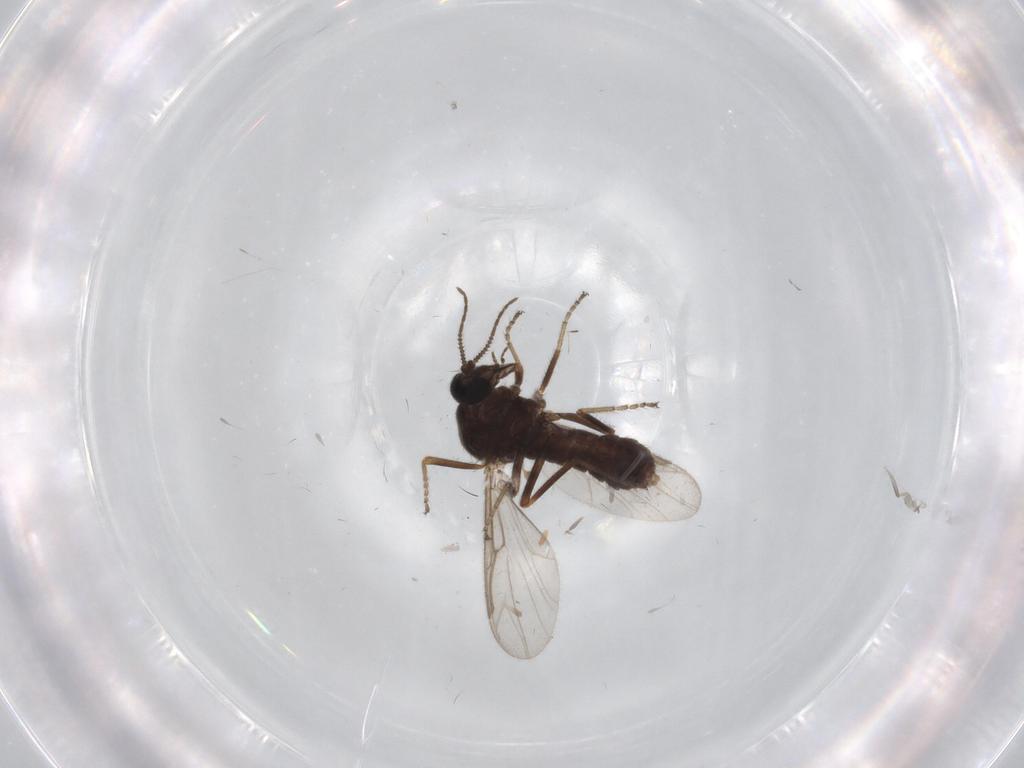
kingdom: Animalia
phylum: Arthropoda
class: Insecta
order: Diptera
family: Ceratopogonidae
